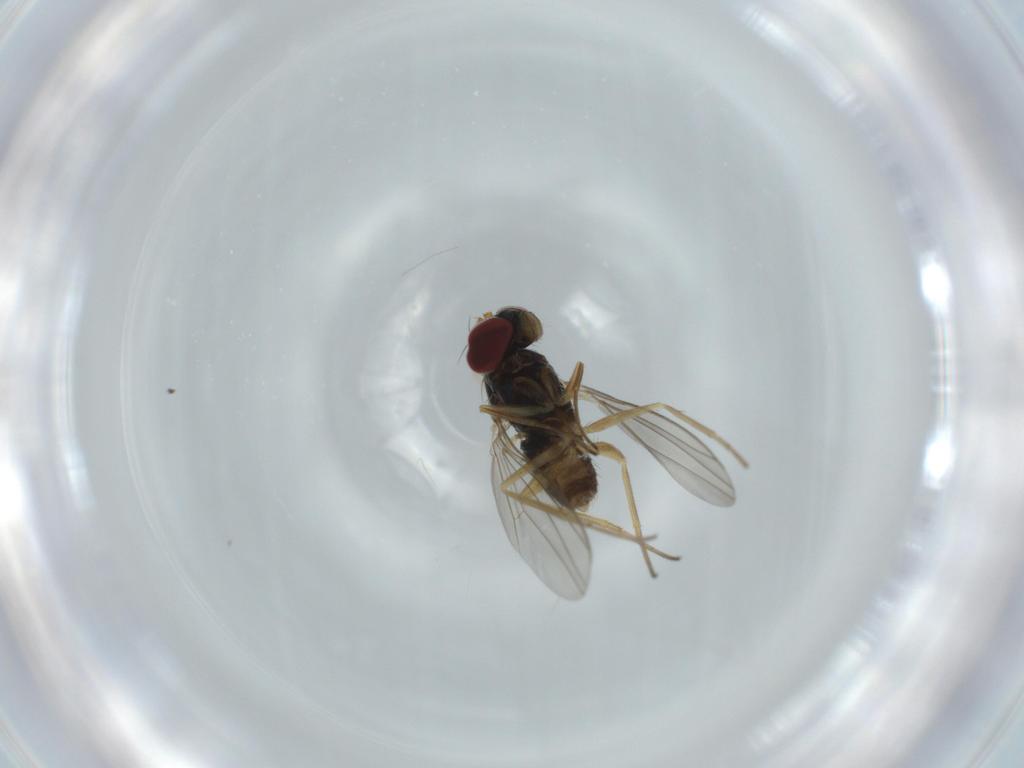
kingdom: Animalia
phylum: Arthropoda
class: Insecta
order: Diptera
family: Dolichopodidae
